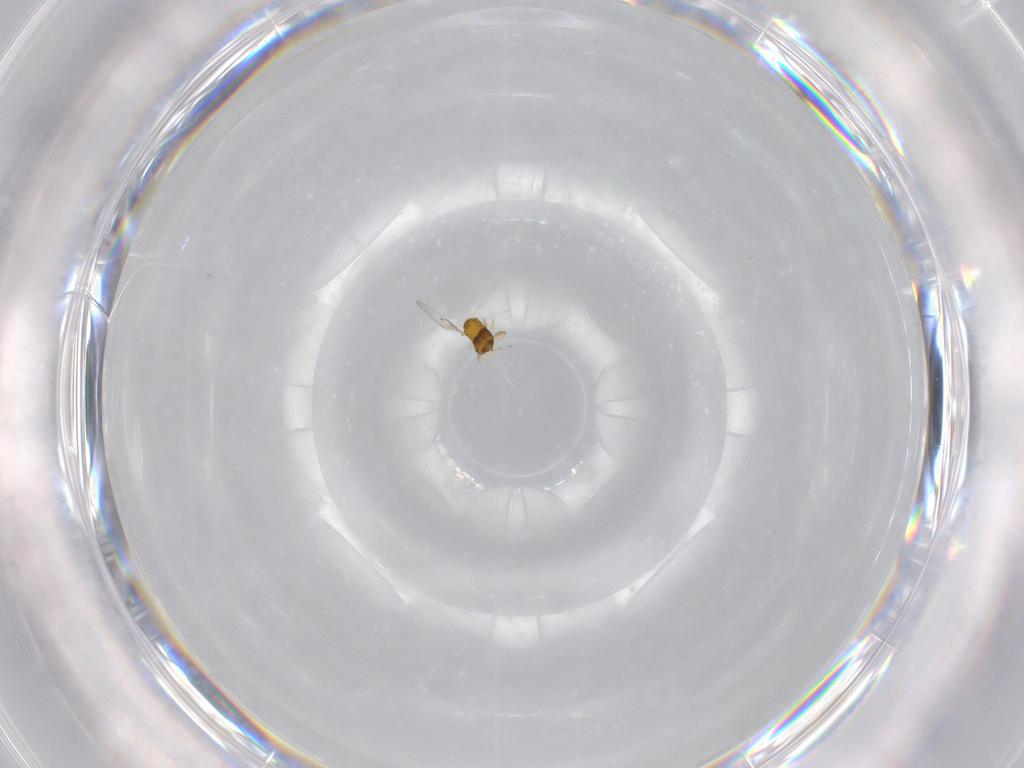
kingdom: Animalia
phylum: Arthropoda
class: Insecta
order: Hymenoptera
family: Trichogrammatidae
